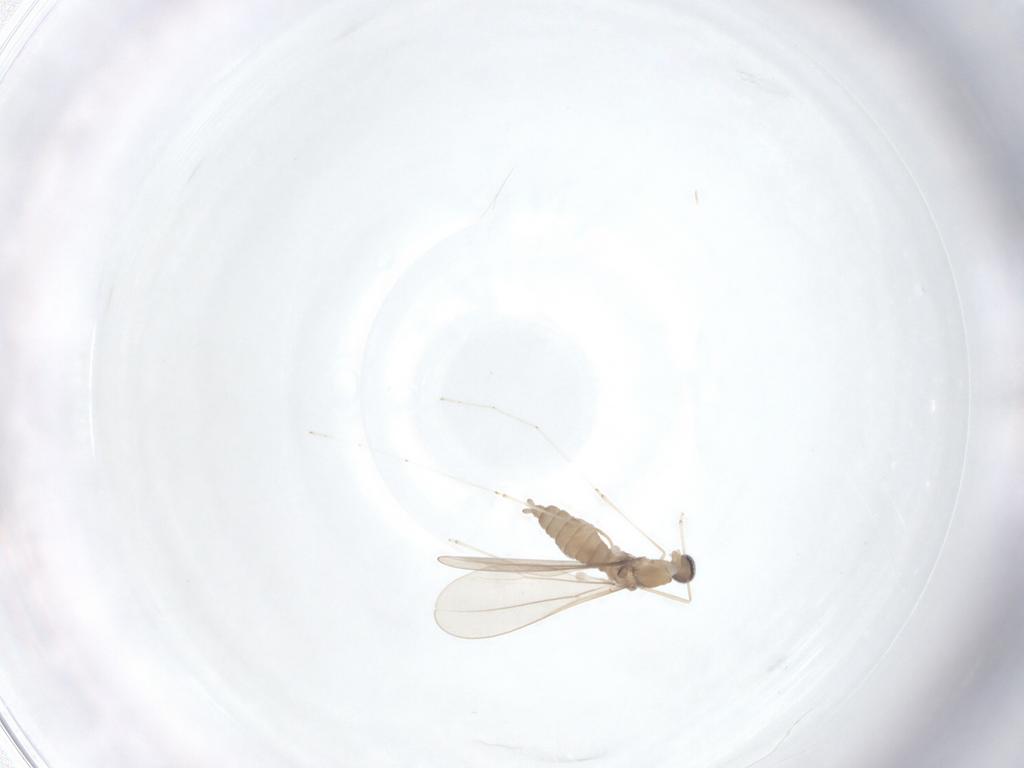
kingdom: Animalia
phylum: Arthropoda
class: Insecta
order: Diptera
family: Cecidomyiidae
